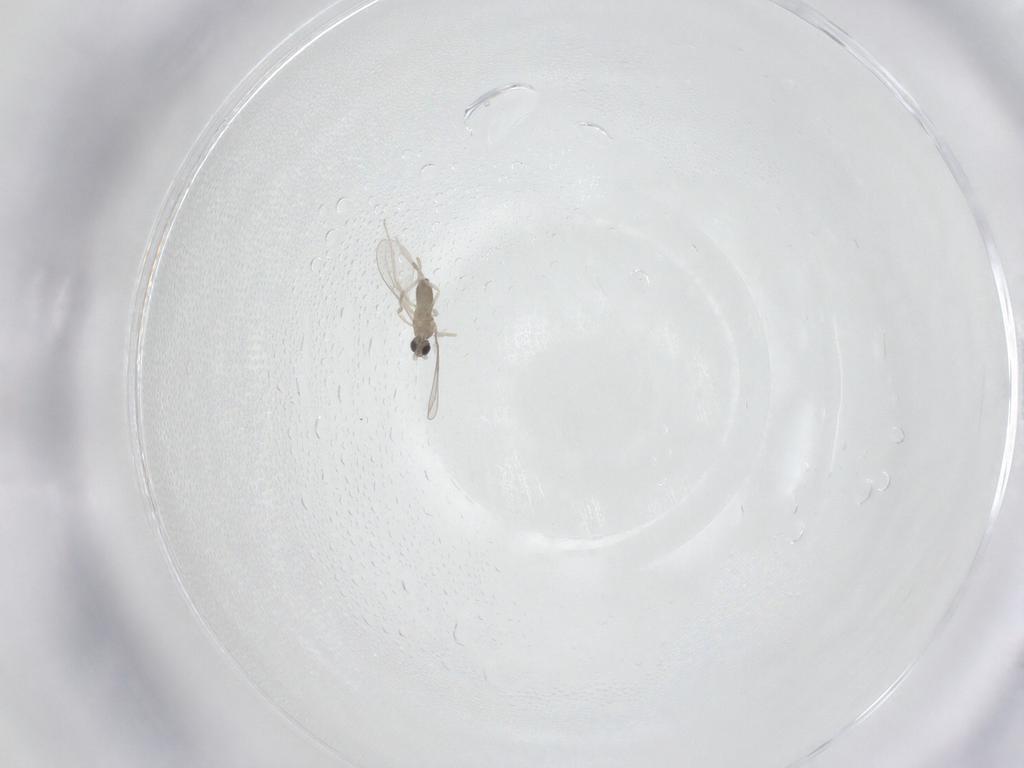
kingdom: Animalia
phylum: Arthropoda
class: Insecta
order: Diptera
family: Cecidomyiidae
